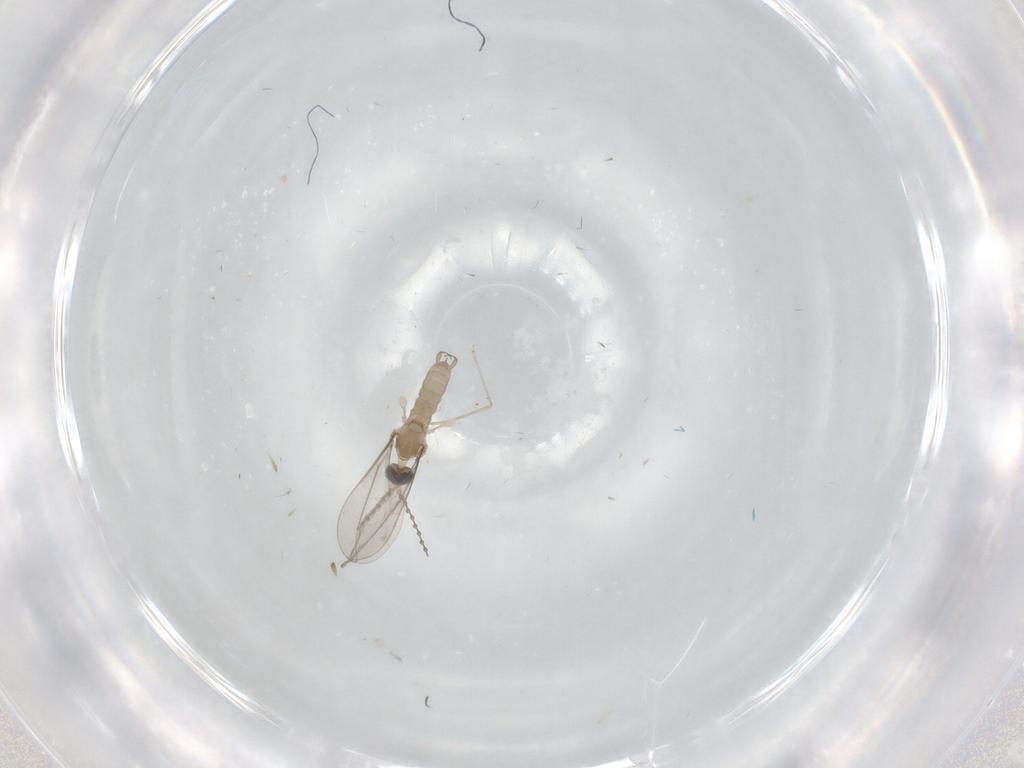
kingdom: Animalia
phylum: Arthropoda
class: Insecta
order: Diptera
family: Cecidomyiidae
